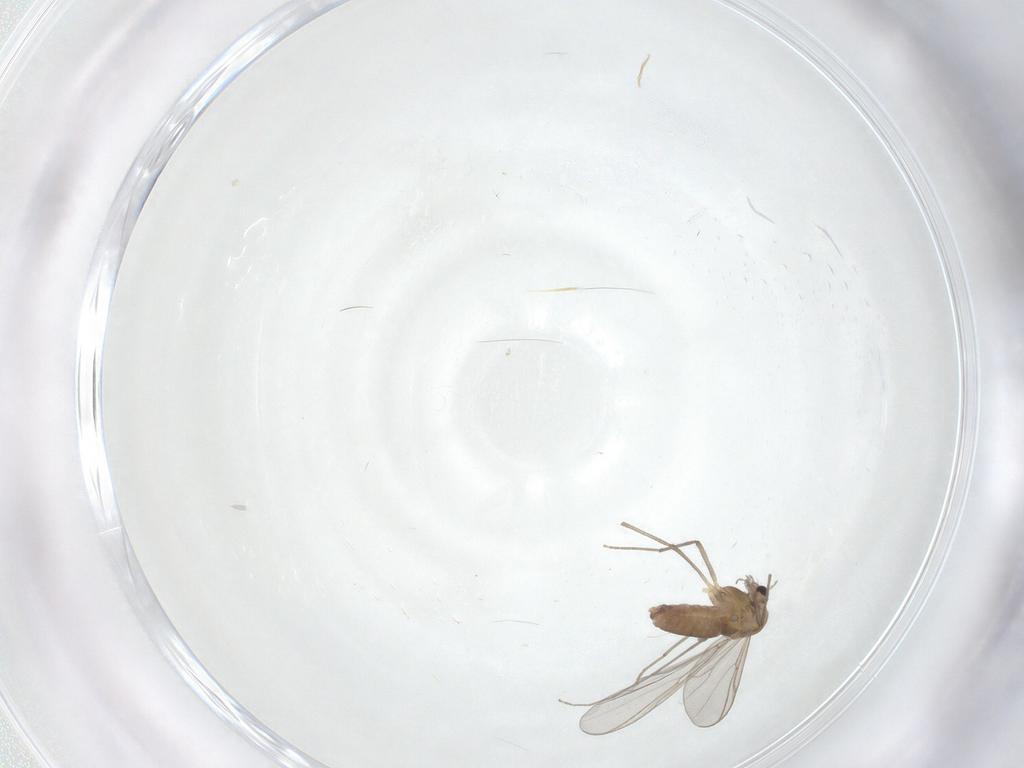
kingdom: Animalia
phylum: Arthropoda
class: Insecta
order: Diptera
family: Chironomidae
